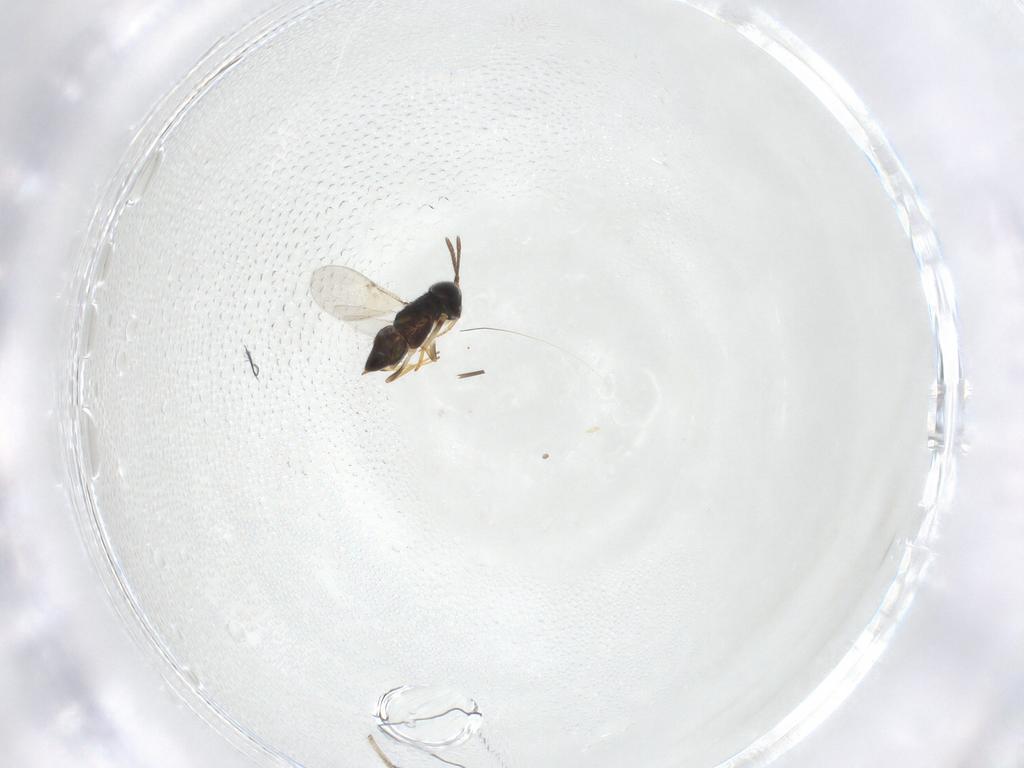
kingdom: Animalia
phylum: Arthropoda
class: Insecta
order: Hymenoptera
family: Encyrtidae
